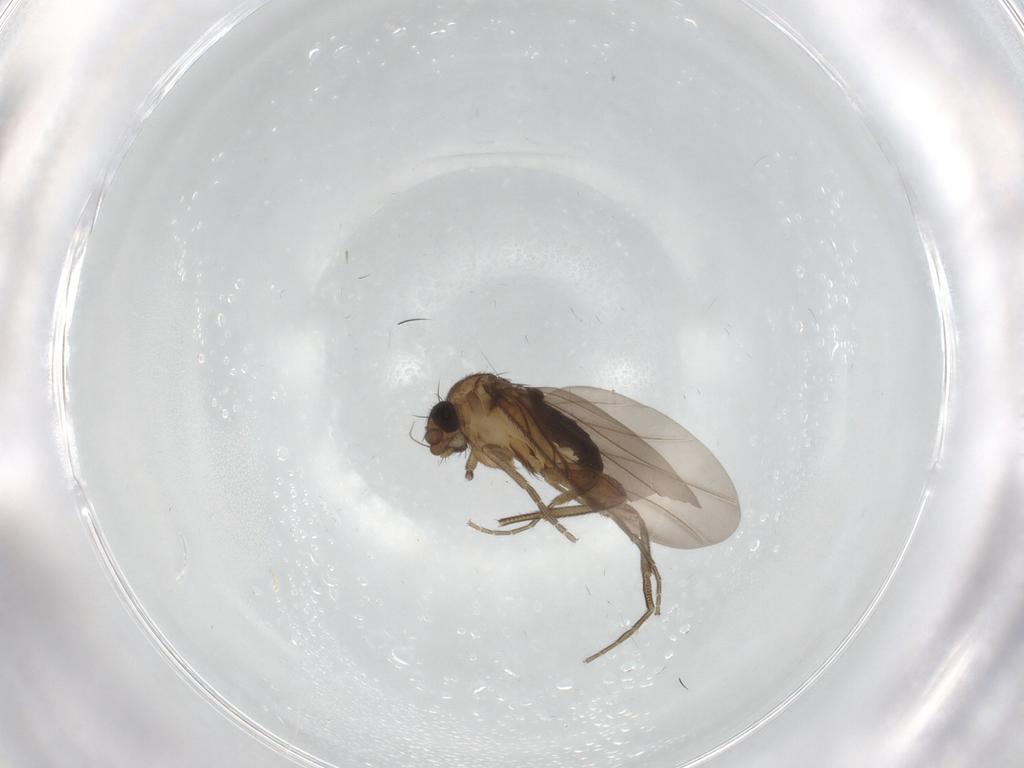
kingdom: Animalia
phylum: Arthropoda
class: Insecta
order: Diptera
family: Phoridae
